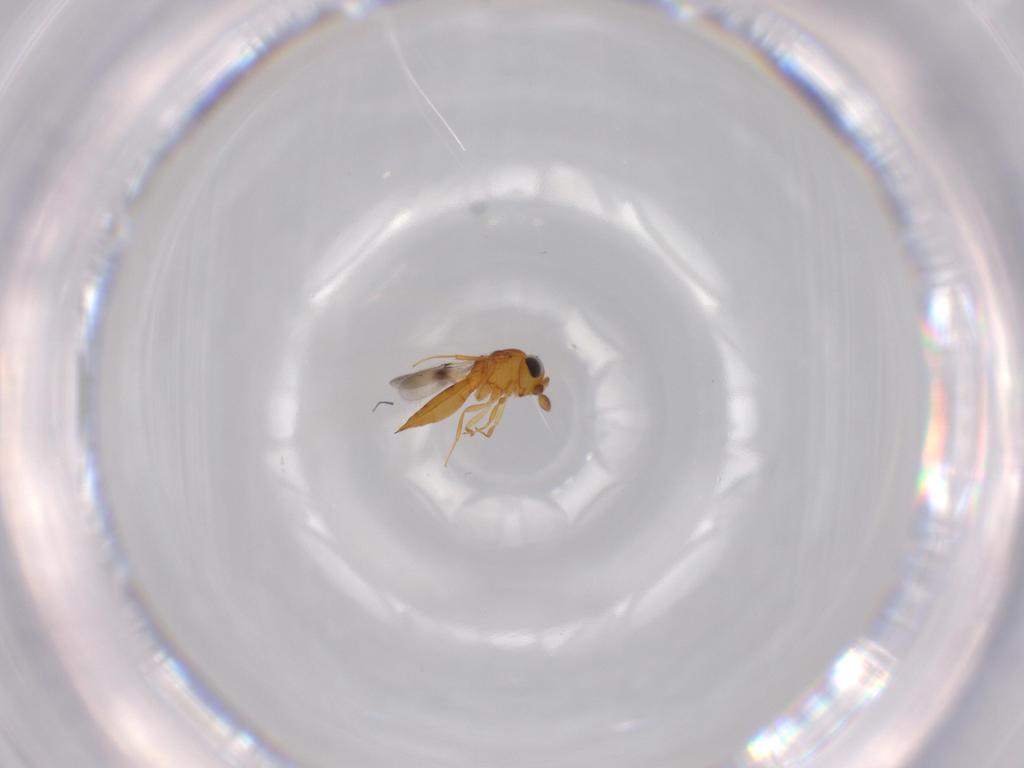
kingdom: Animalia
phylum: Arthropoda
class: Insecta
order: Hymenoptera
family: Scelionidae
